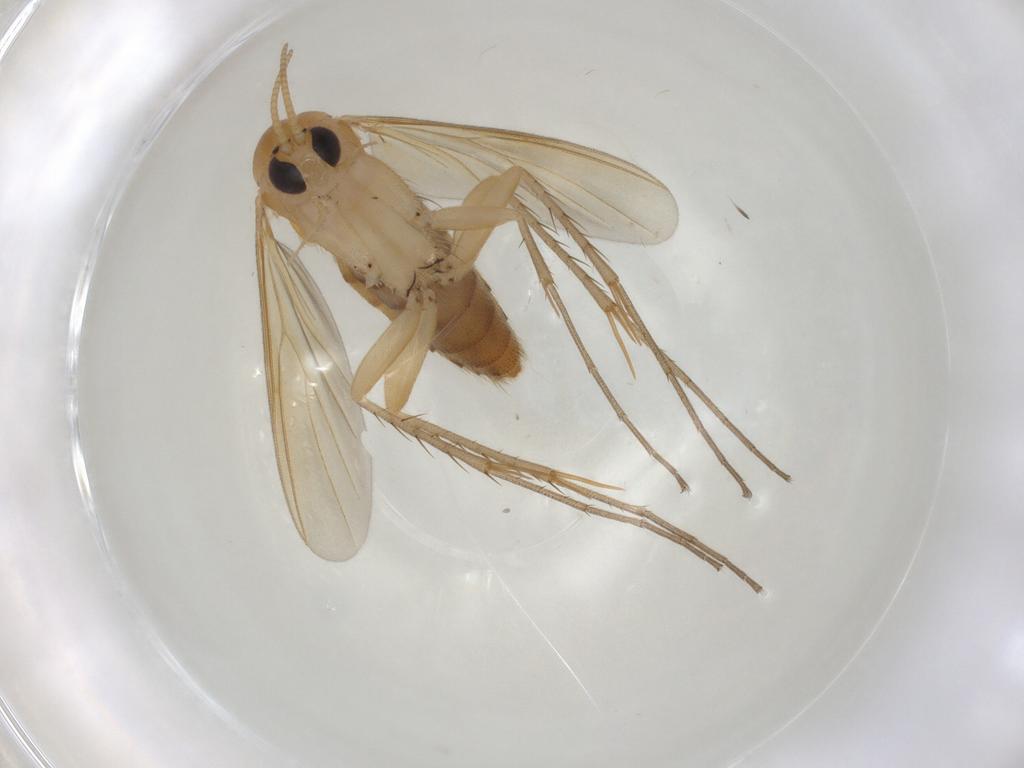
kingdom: Animalia
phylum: Arthropoda
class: Insecta
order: Diptera
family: Mycetophilidae
